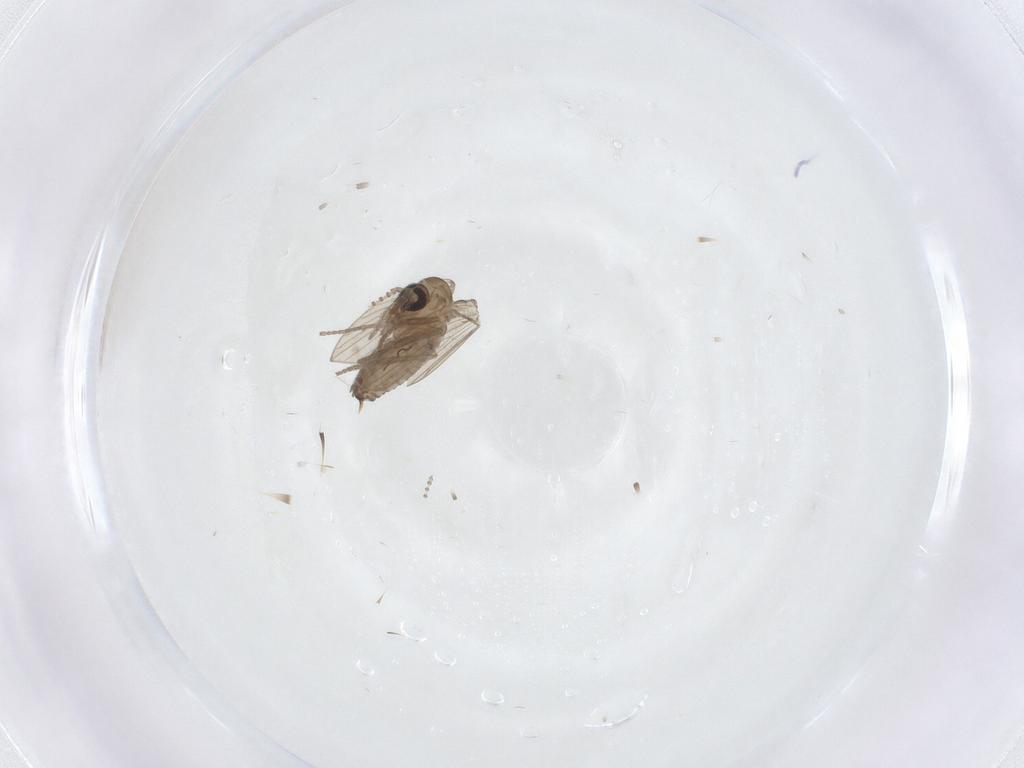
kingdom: Animalia
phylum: Arthropoda
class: Insecta
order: Diptera
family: Psychodidae
